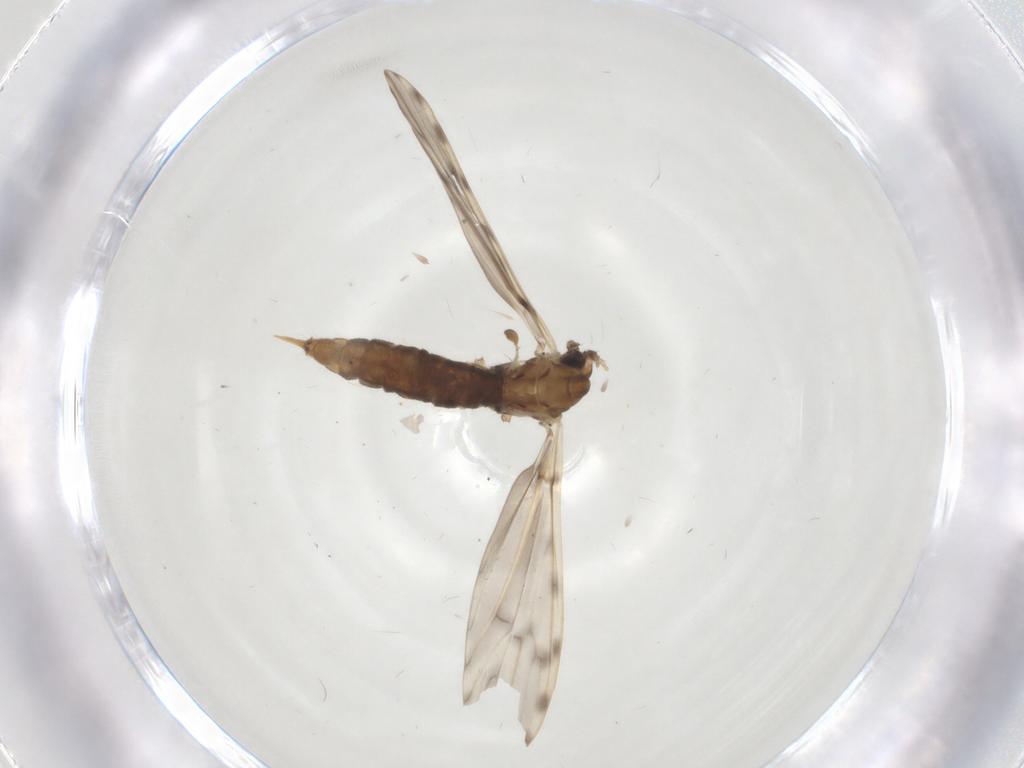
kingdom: Animalia
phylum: Arthropoda
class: Insecta
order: Diptera
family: Limoniidae
